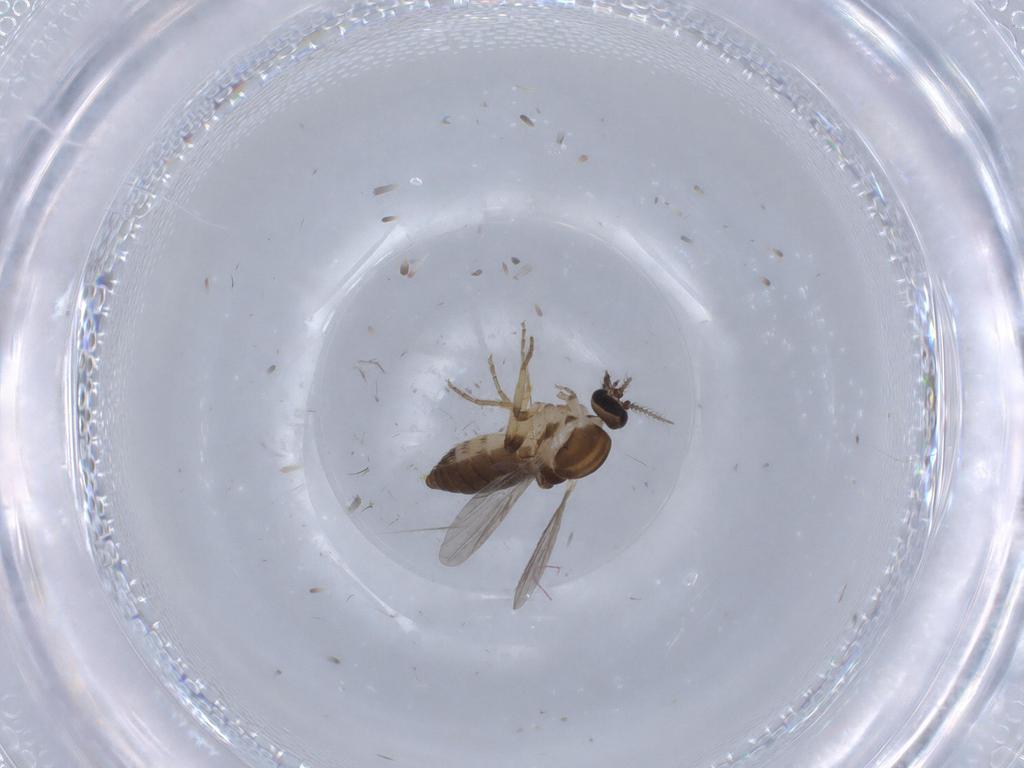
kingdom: Animalia
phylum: Arthropoda
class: Insecta
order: Diptera
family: Ceratopogonidae
